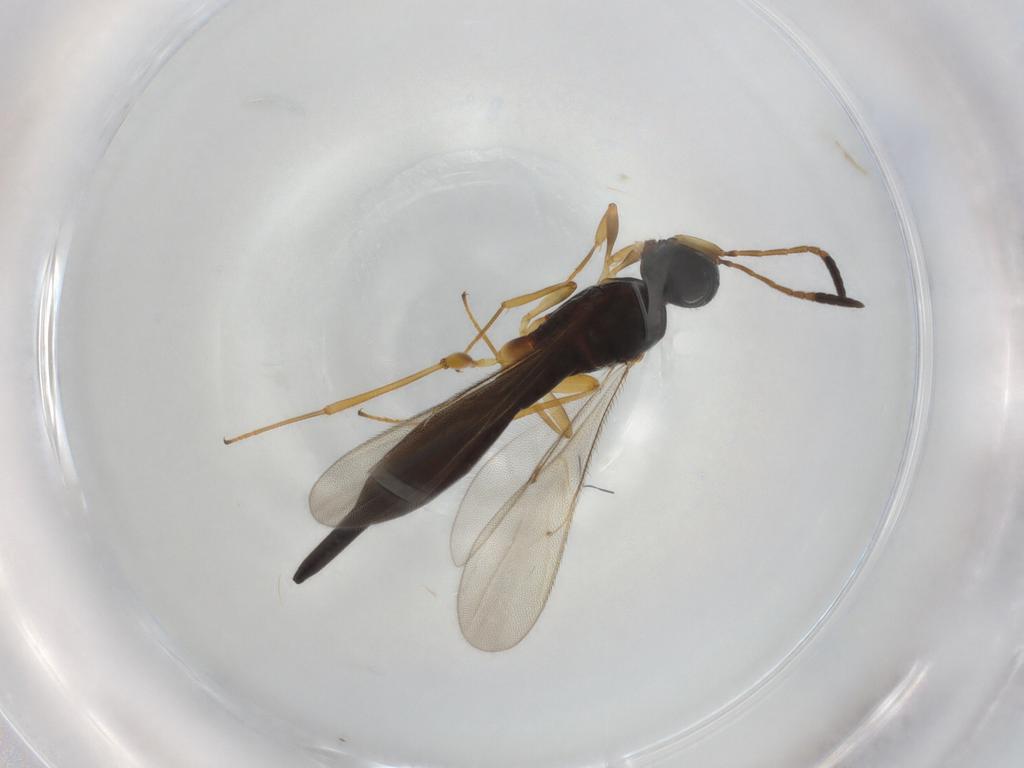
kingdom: Animalia
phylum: Arthropoda
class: Insecta
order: Hymenoptera
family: Scelionidae
